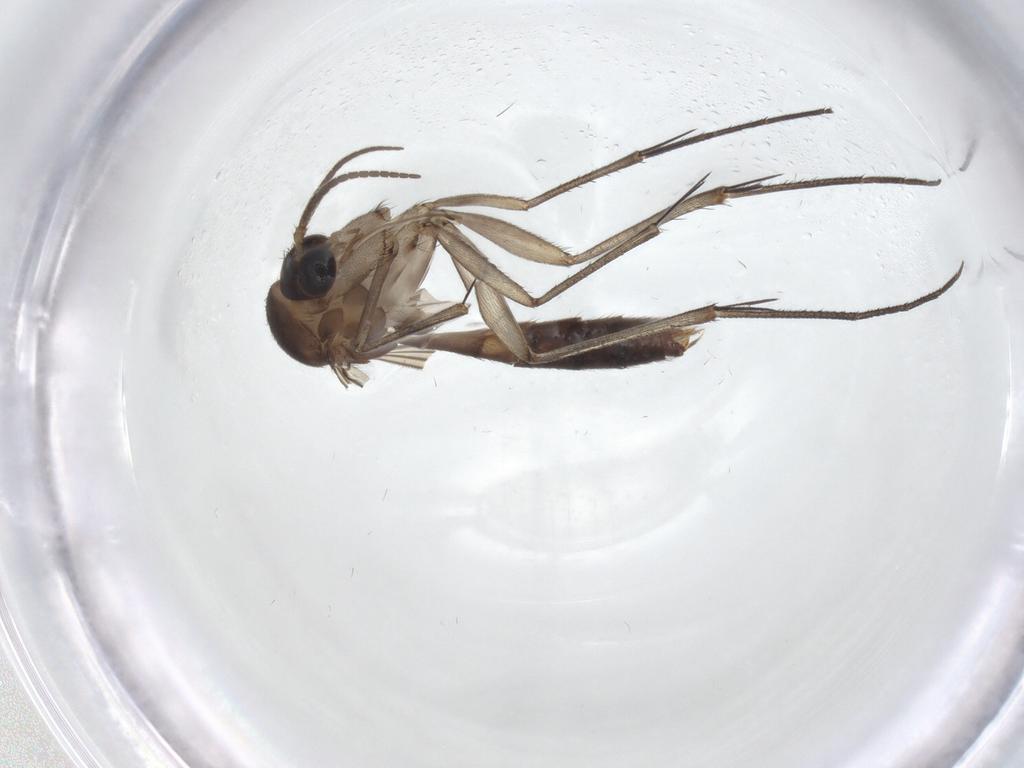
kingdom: Animalia
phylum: Arthropoda
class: Insecta
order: Diptera
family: Mycetophilidae
